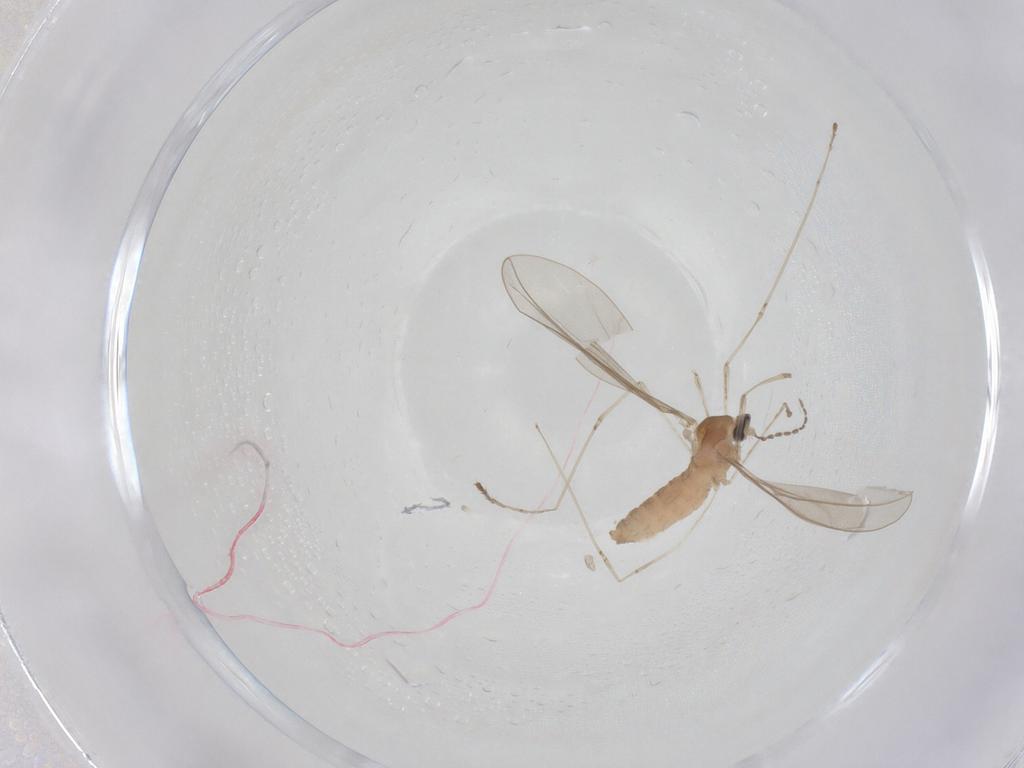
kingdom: Animalia
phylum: Arthropoda
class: Insecta
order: Diptera
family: Cecidomyiidae
